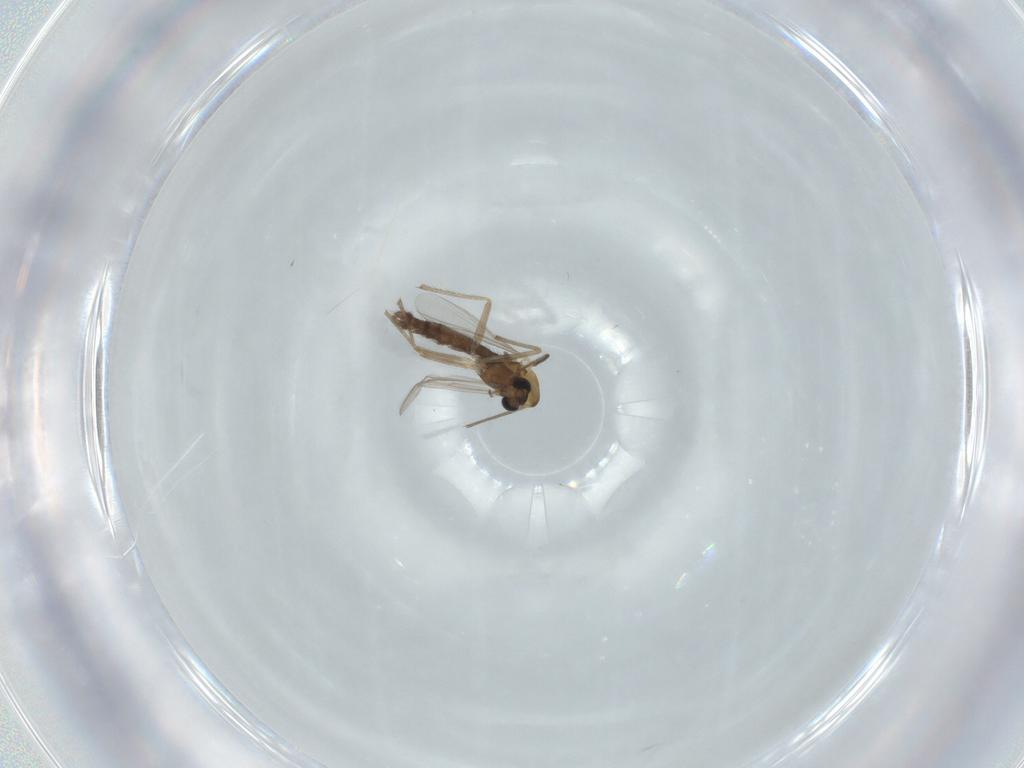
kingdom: Animalia
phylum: Arthropoda
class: Insecta
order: Diptera
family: Chironomidae
